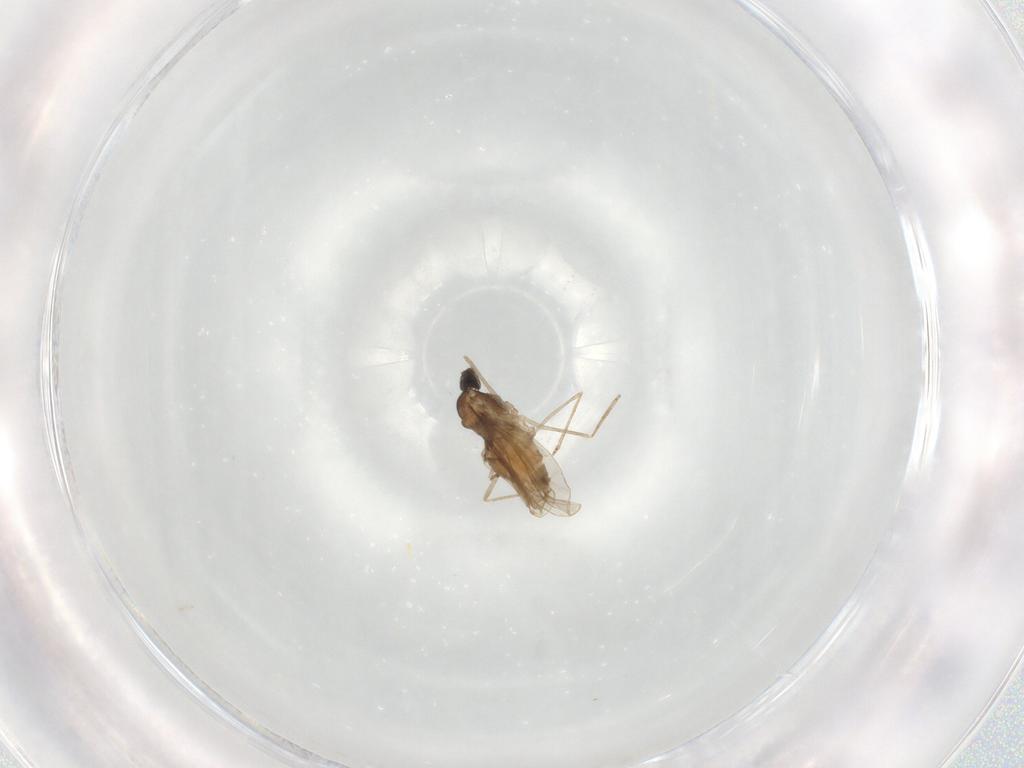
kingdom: Animalia
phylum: Arthropoda
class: Insecta
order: Diptera
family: Cecidomyiidae
